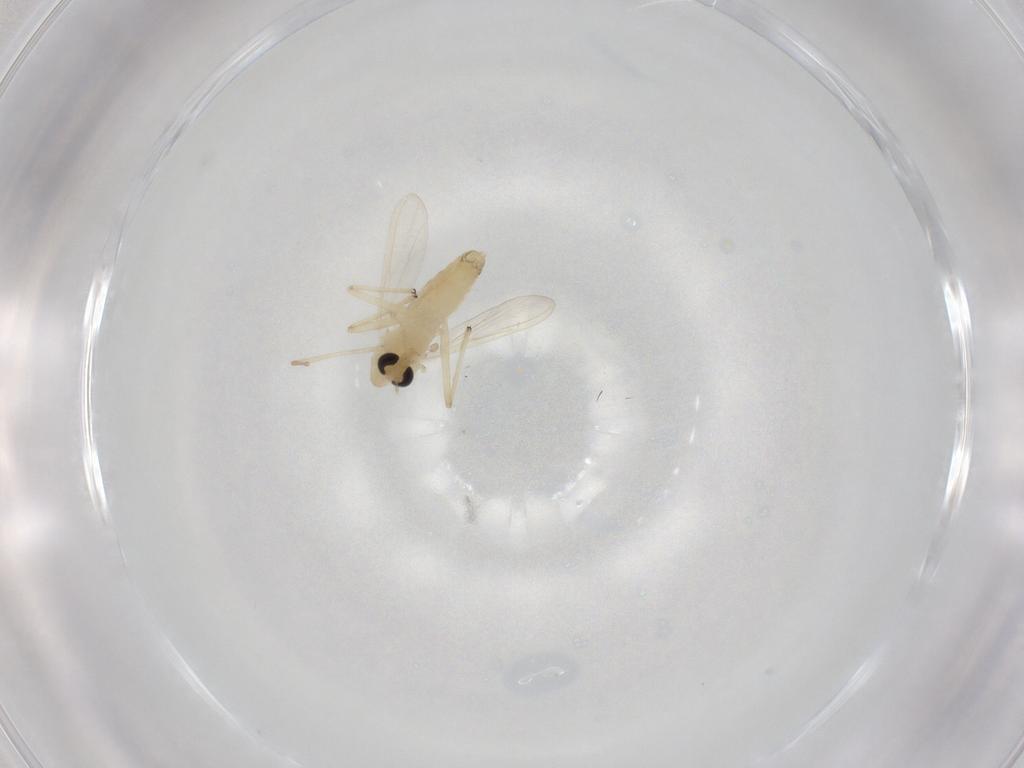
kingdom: Animalia
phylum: Arthropoda
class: Insecta
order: Diptera
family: Chironomidae
